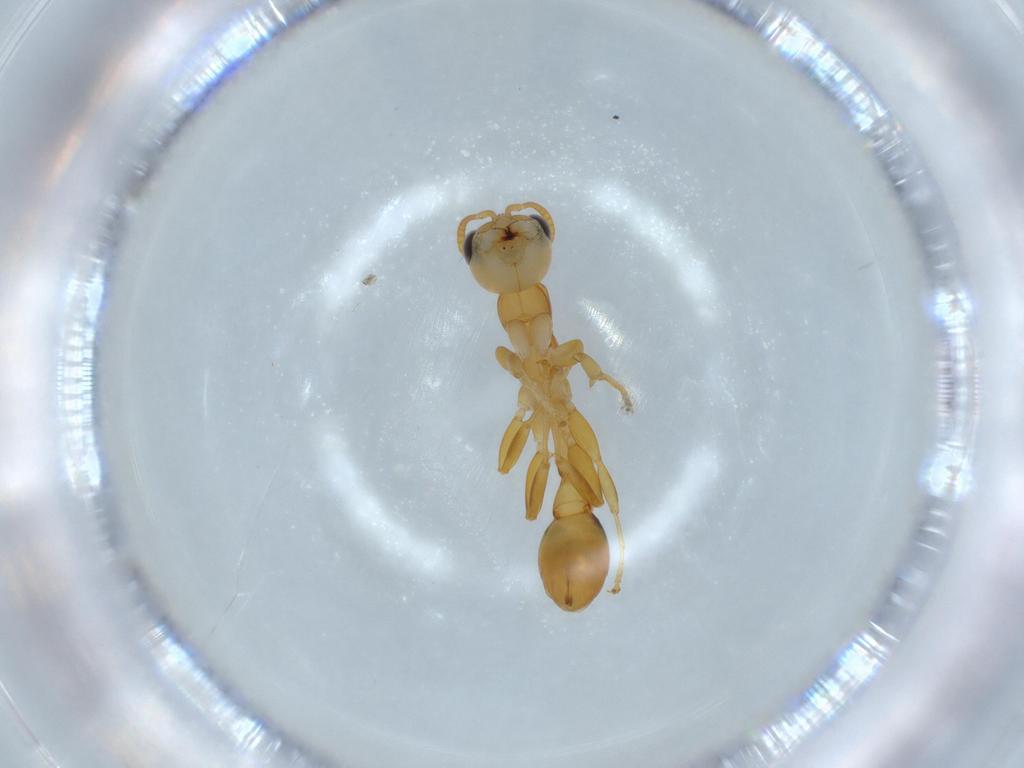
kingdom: Animalia
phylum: Arthropoda
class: Insecta
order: Hymenoptera
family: Formicidae
